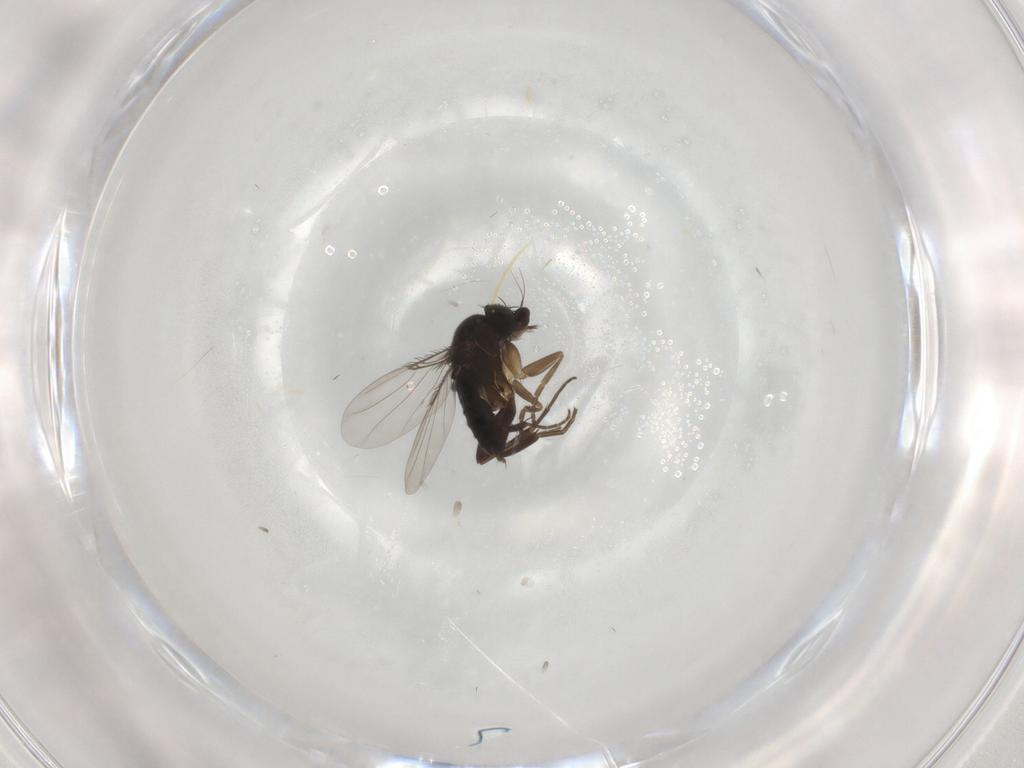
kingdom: Animalia
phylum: Arthropoda
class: Insecta
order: Diptera
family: Phoridae
